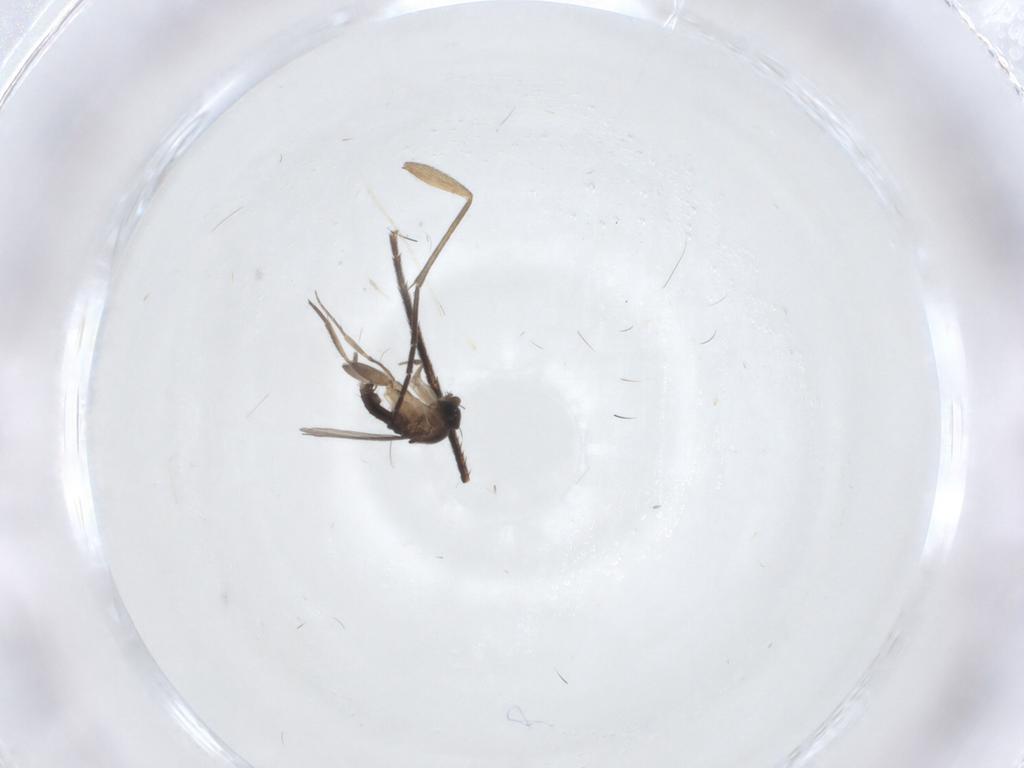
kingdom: Animalia
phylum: Arthropoda
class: Insecta
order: Diptera
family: Phoridae
